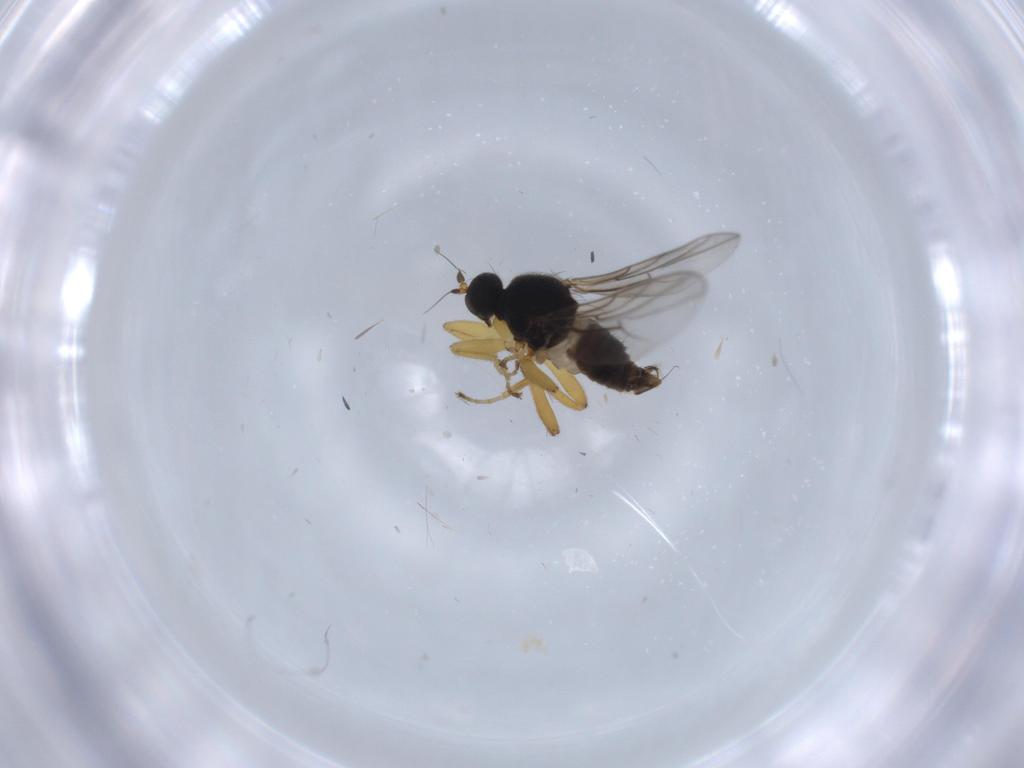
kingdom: Animalia
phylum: Arthropoda
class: Insecta
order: Diptera
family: Hybotidae
